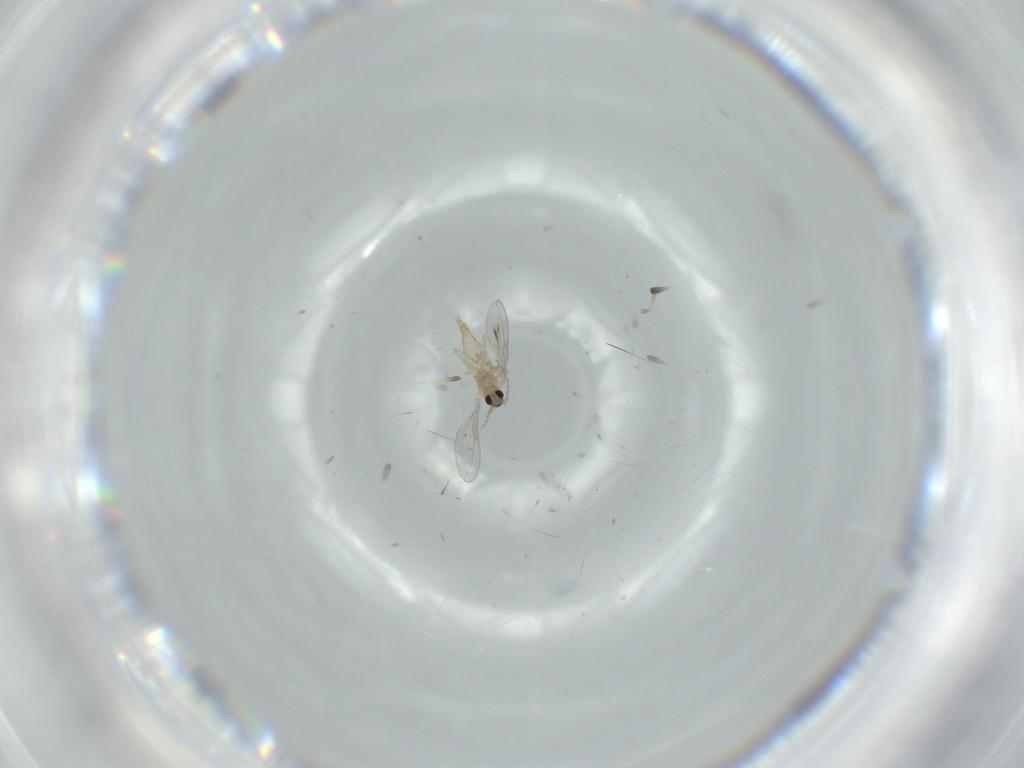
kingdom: Animalia
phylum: Arthropoda
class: Insecta
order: Diptera
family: Cecidomyiidae
